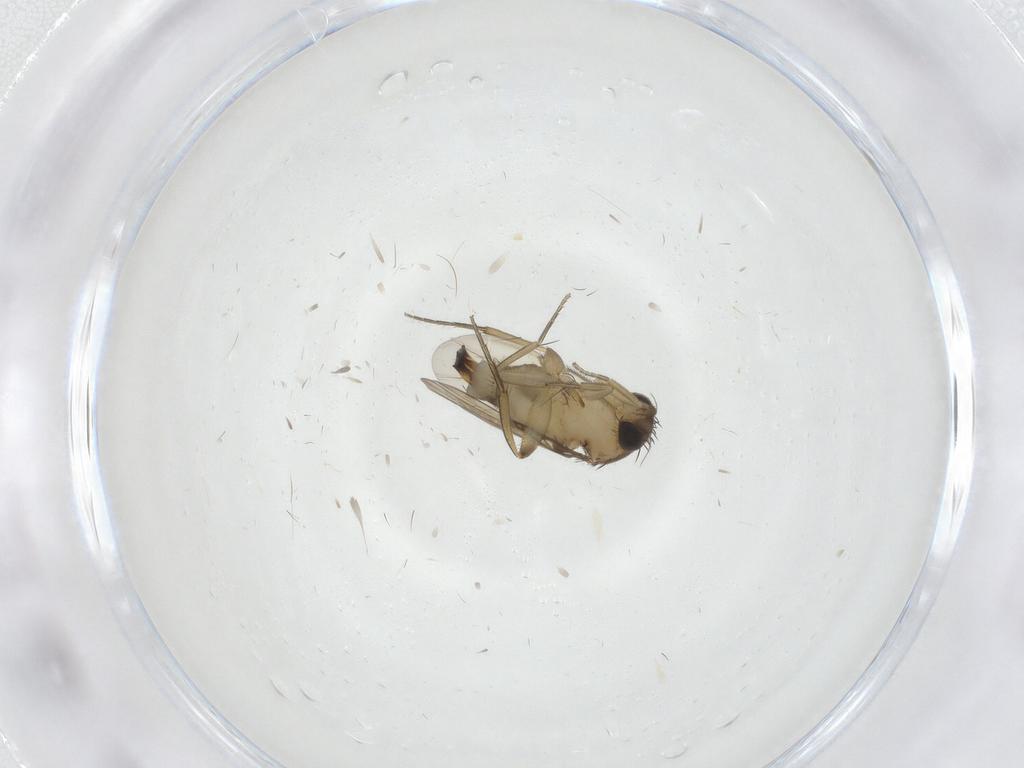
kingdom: Animalia
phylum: Arthropoda
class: Insecta
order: Diptera
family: Phoridae
